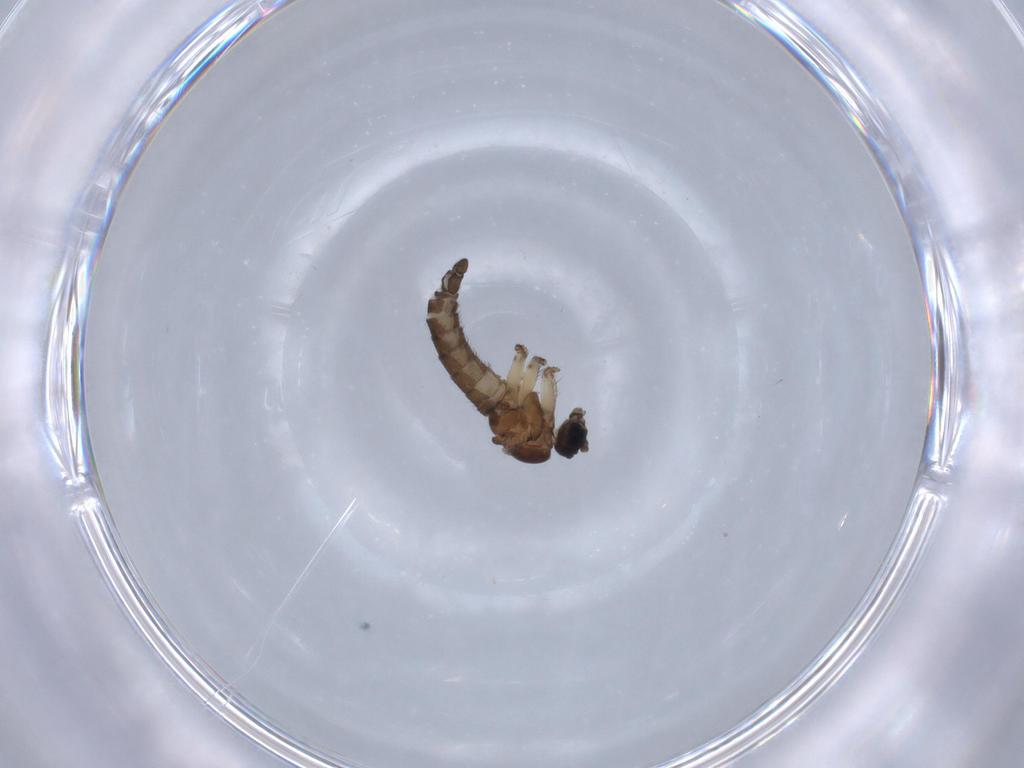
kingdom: Animalia
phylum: Arthropoda
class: Insecta
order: Diptera
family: Sciaridae
